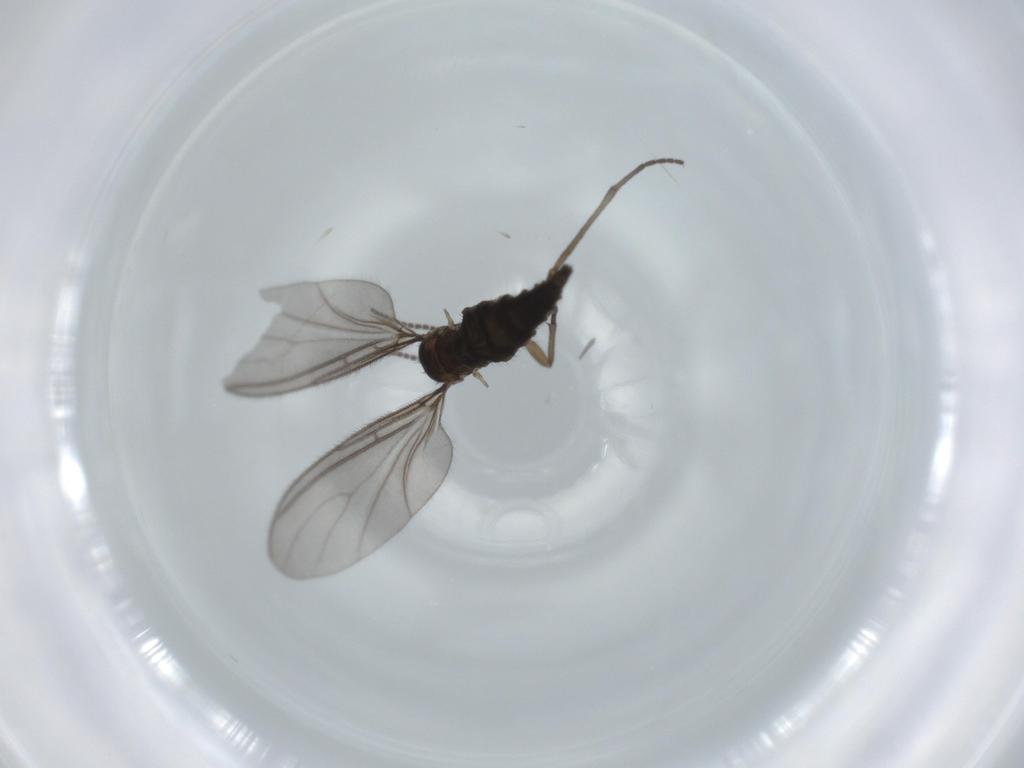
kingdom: Animalia
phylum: Arthropoda
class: Insecta
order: Diptera
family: Sciaridae
